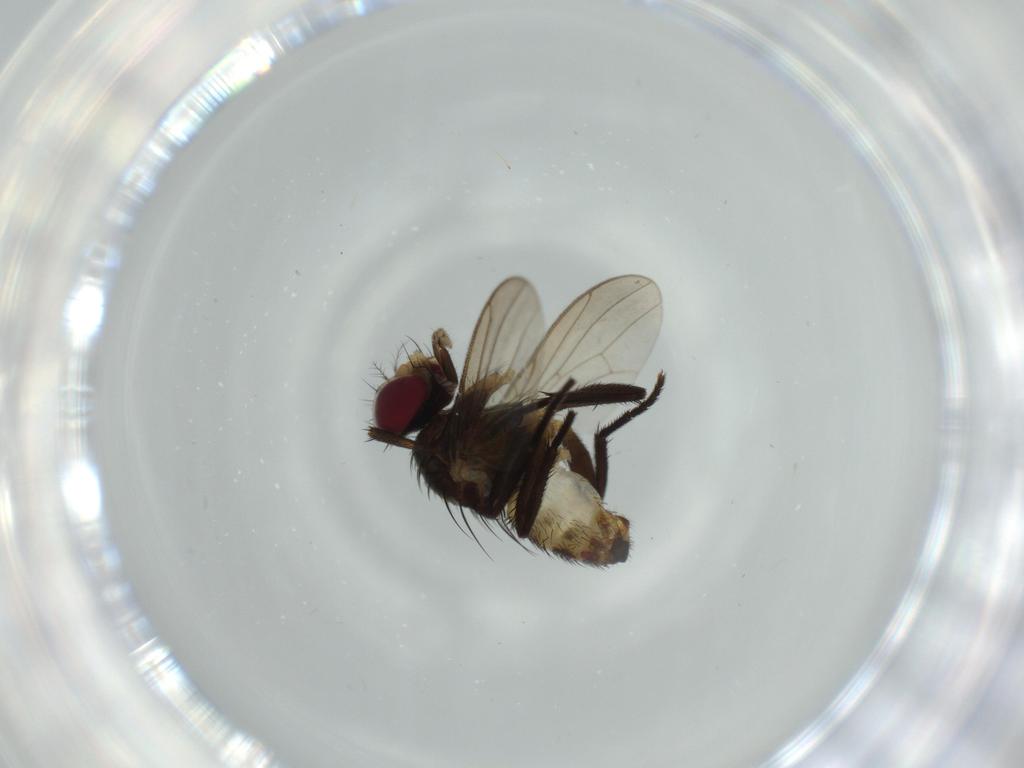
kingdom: Animalia
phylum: Arthropoda
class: Insecta
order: Diptera
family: Anthomyiidae
